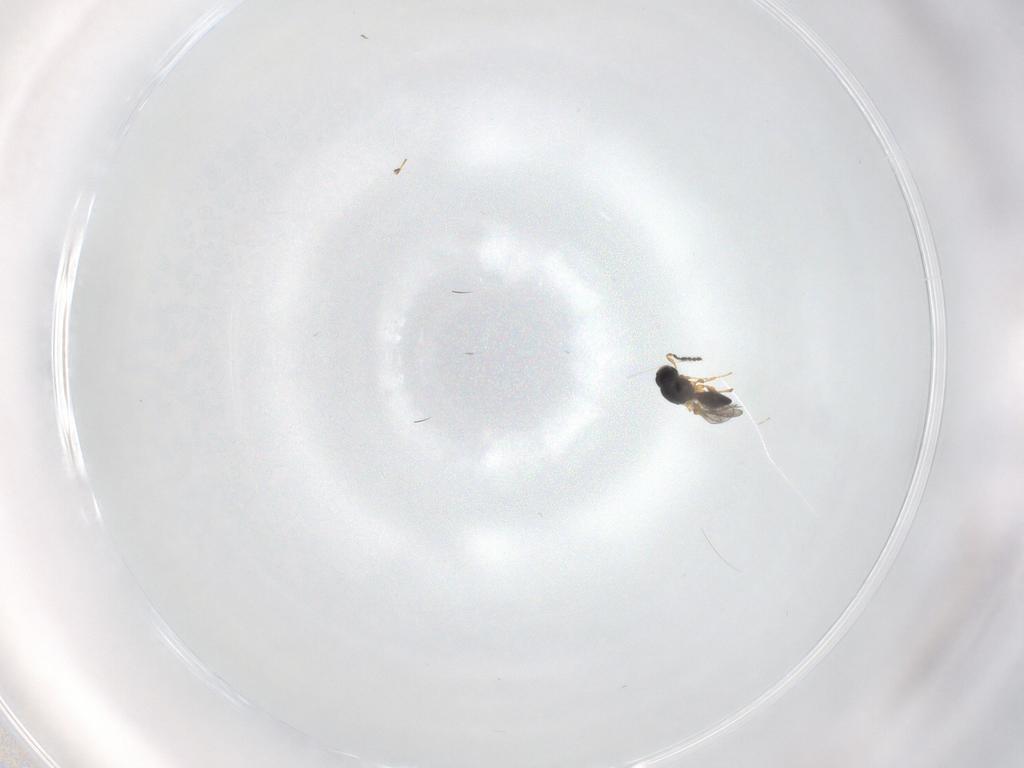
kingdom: Animalia
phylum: Arthropoda
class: Insecta
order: Hymenoptera
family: Platygastridae
